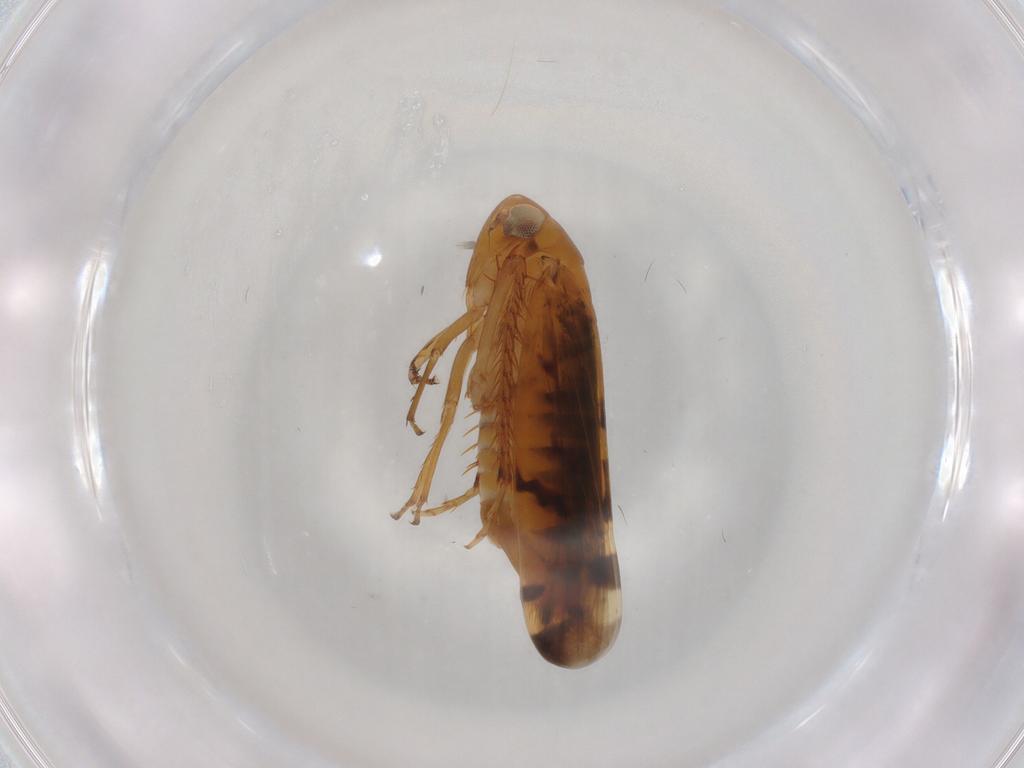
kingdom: Animalia
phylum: Arthropoda
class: Insecta
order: Hemiptera
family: Cicadellidae
